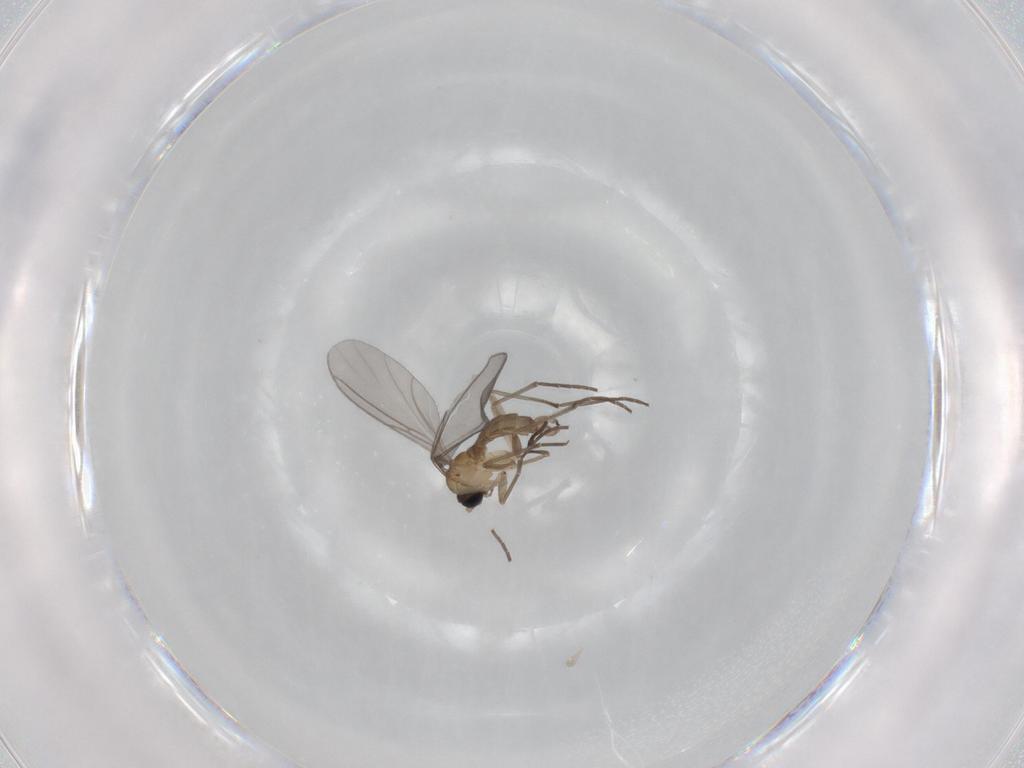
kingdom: Animalia
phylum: Arthropoda
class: Insecta
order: Diptera
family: Sciaridae
